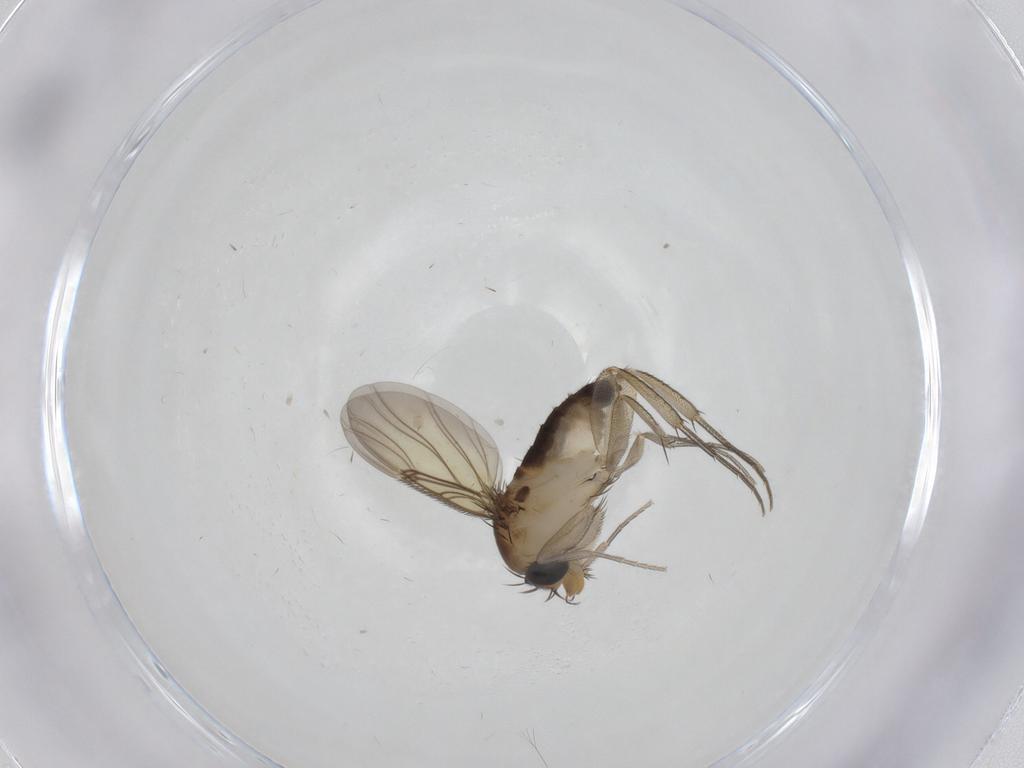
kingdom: Animalia
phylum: Arthropoda
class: Insecta
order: Diptera
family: Phoridae
